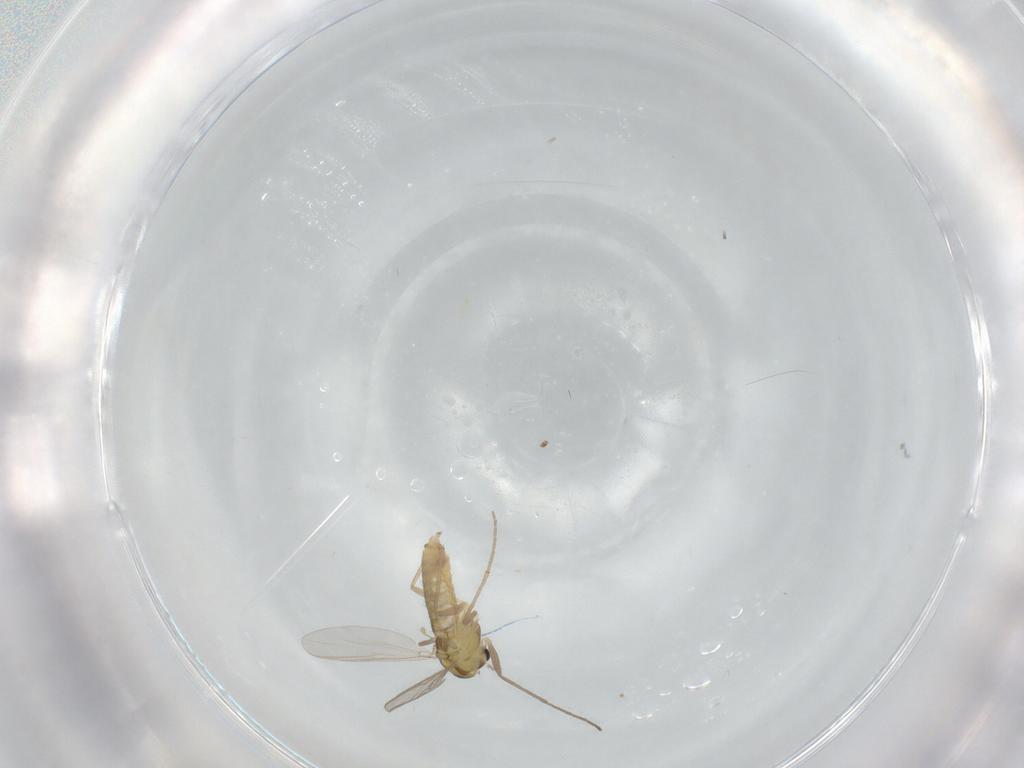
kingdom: Animalia
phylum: Arthropoda
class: Insecta
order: Diptera
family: Chironomidae
